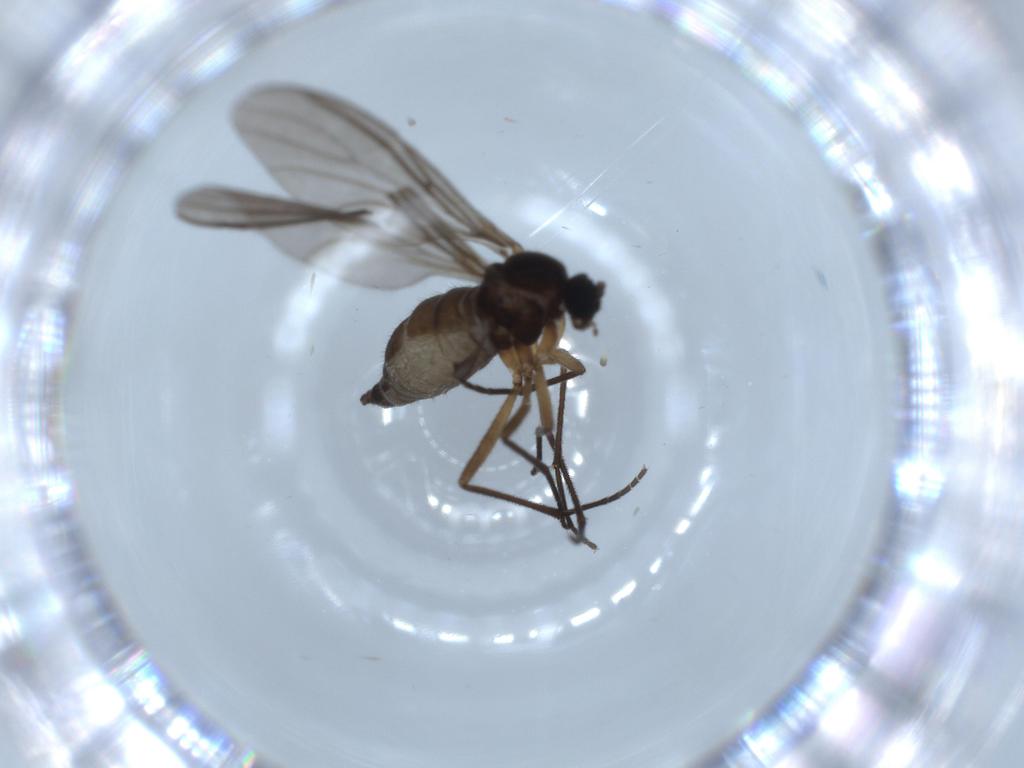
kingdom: Animalia
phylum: Arthropoda
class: Insecta
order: Diptera
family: Sciaridae
